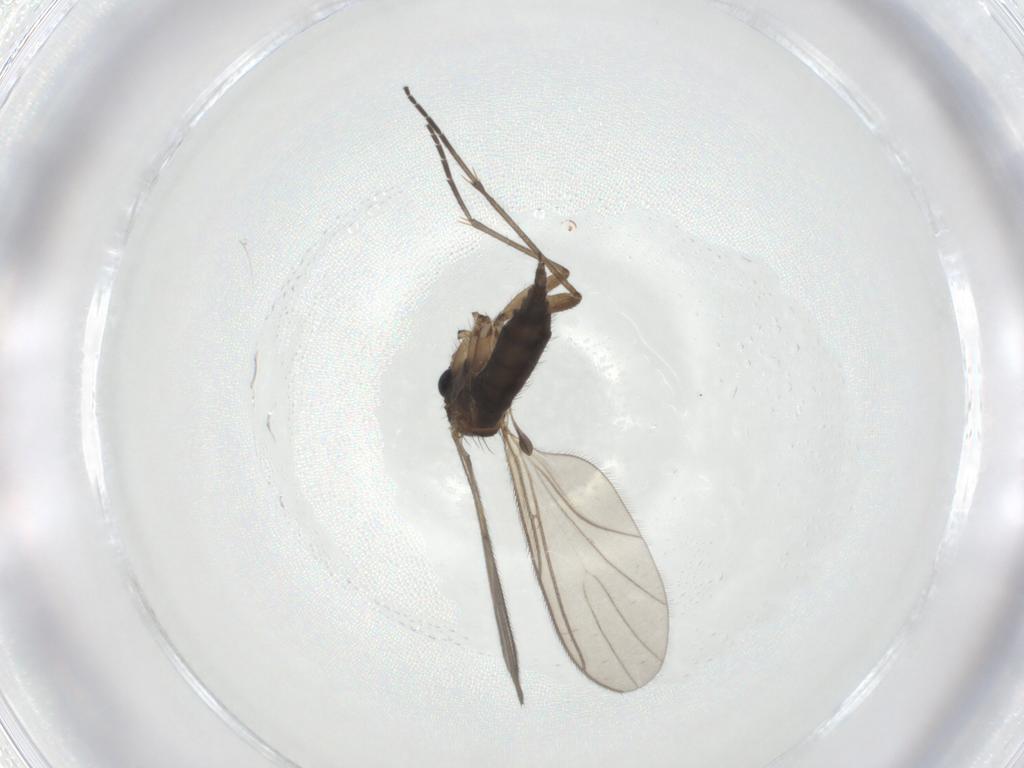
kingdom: Animalia
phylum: Arthropoda
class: Insecta
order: Diptera
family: Sciaridae
